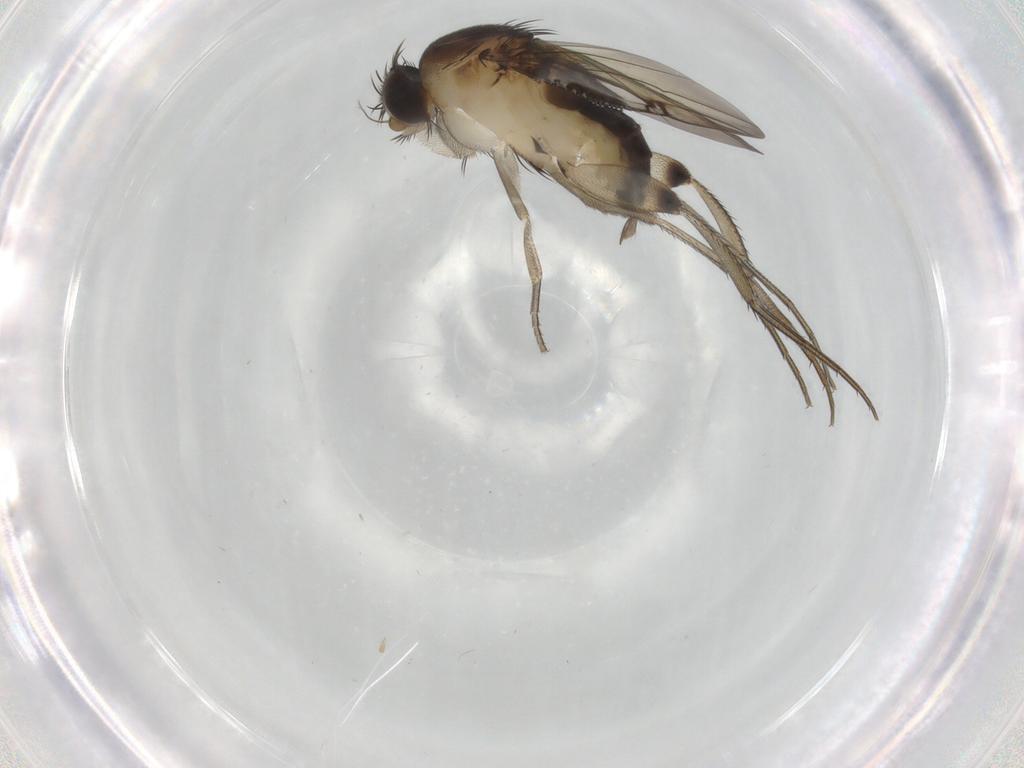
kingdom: Animalia
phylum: Arthropoda
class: Insecta
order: Diptera
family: Phoridae
